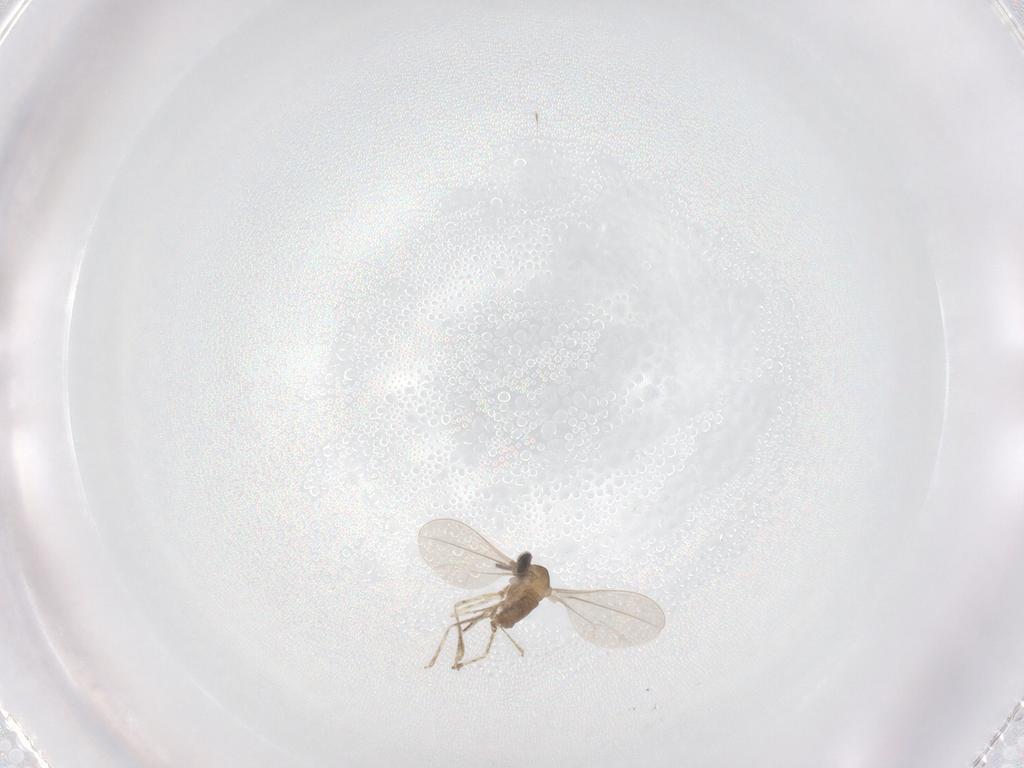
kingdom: Animalia
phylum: Arthropoda
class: Insecta
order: Diptera
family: Cecidomyiidae
